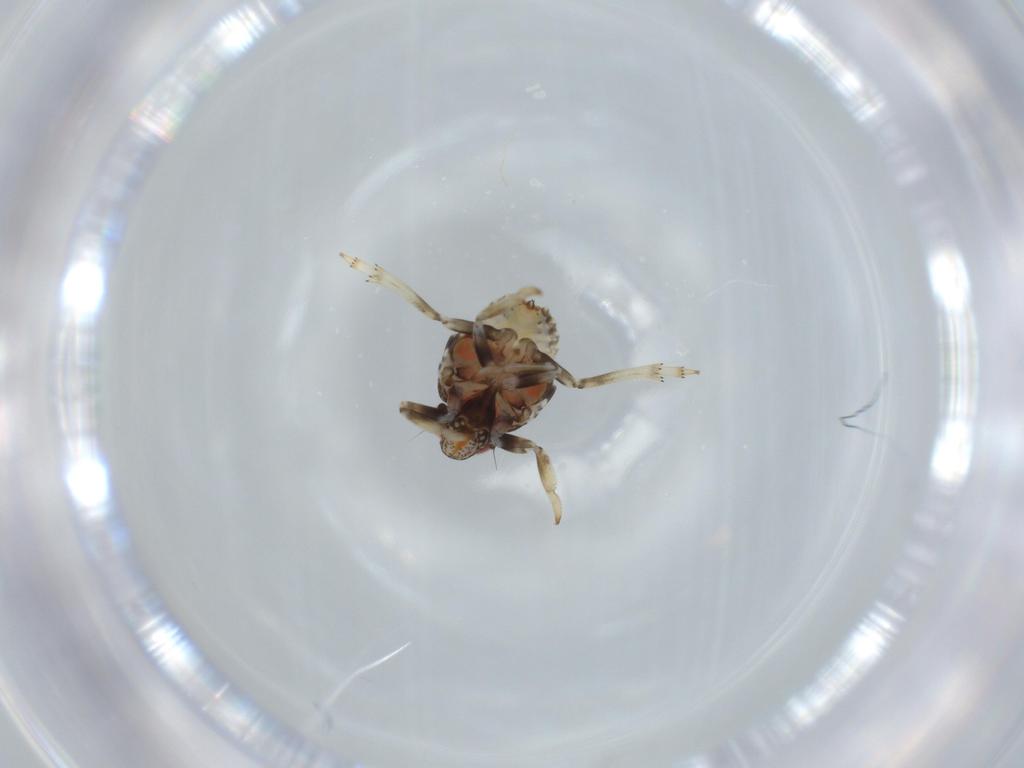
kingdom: Animalia
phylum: Arthropoda
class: Insecta
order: Hemiptera
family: Issidae
